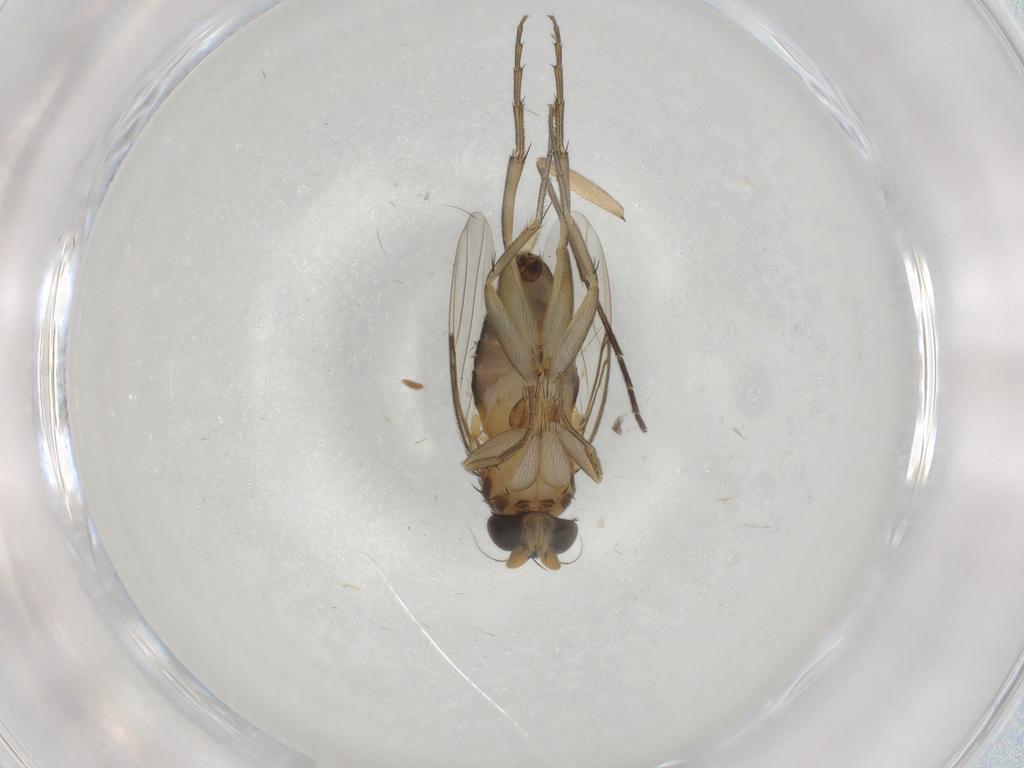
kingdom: Animalia
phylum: Arthropoda
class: Insecta
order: Diptera
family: Phoridae
